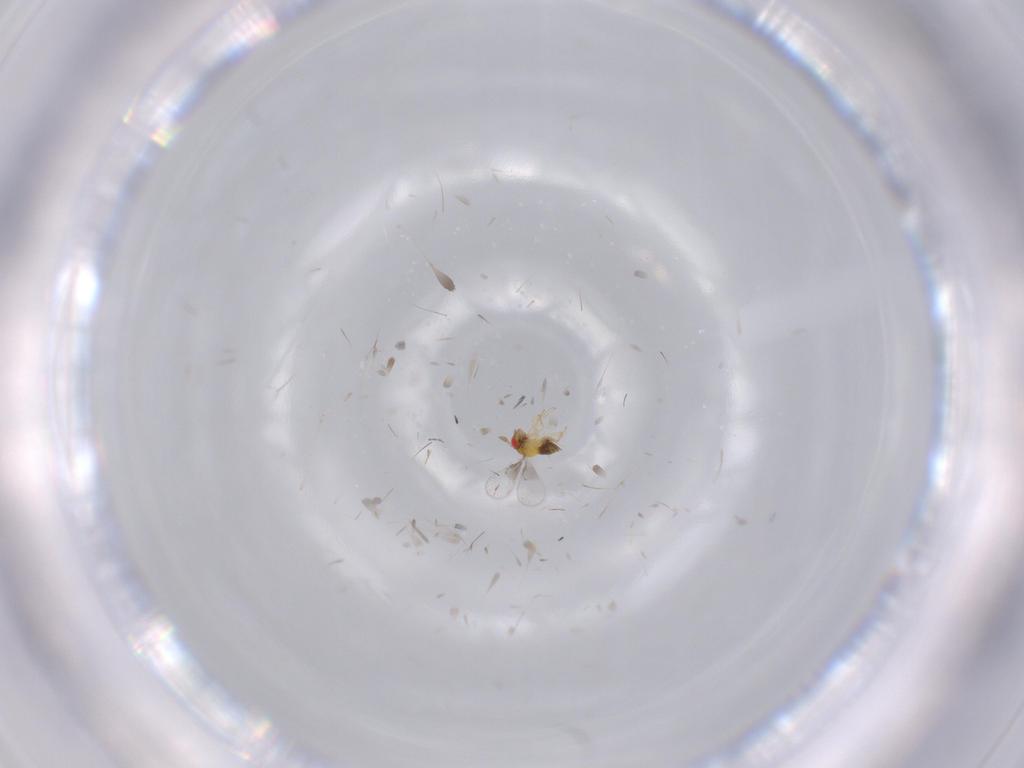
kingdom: Animalia
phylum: Arthropoda
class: Insecta
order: Hymenoptera
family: Trichogrammatidae
